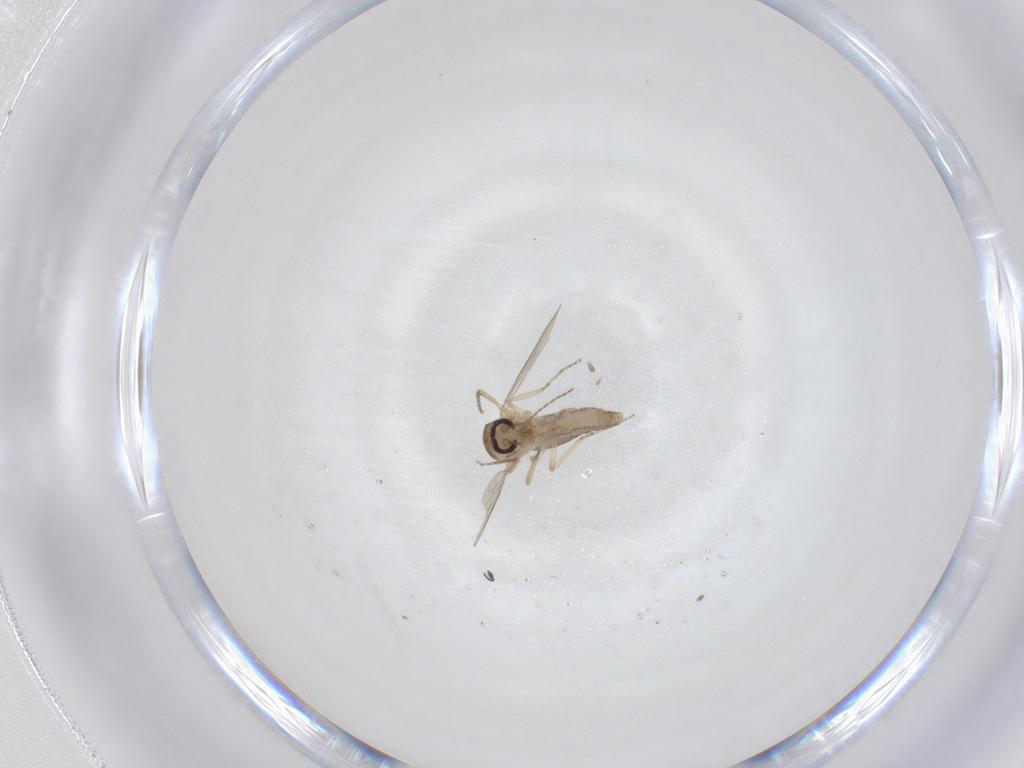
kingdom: Animalia
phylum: Arthropoda
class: Insecta
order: Diptera
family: Ceratopogonidae
